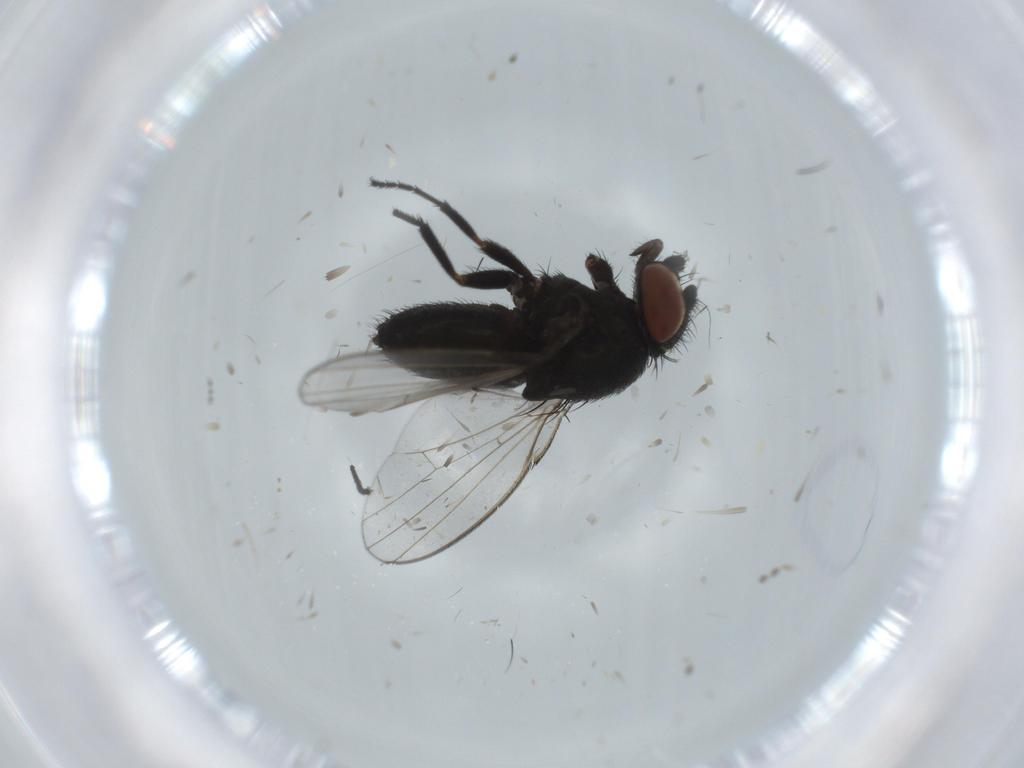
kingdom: Animalia
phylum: Arthropoda
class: Insecta
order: Diptera
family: Milichiidae
